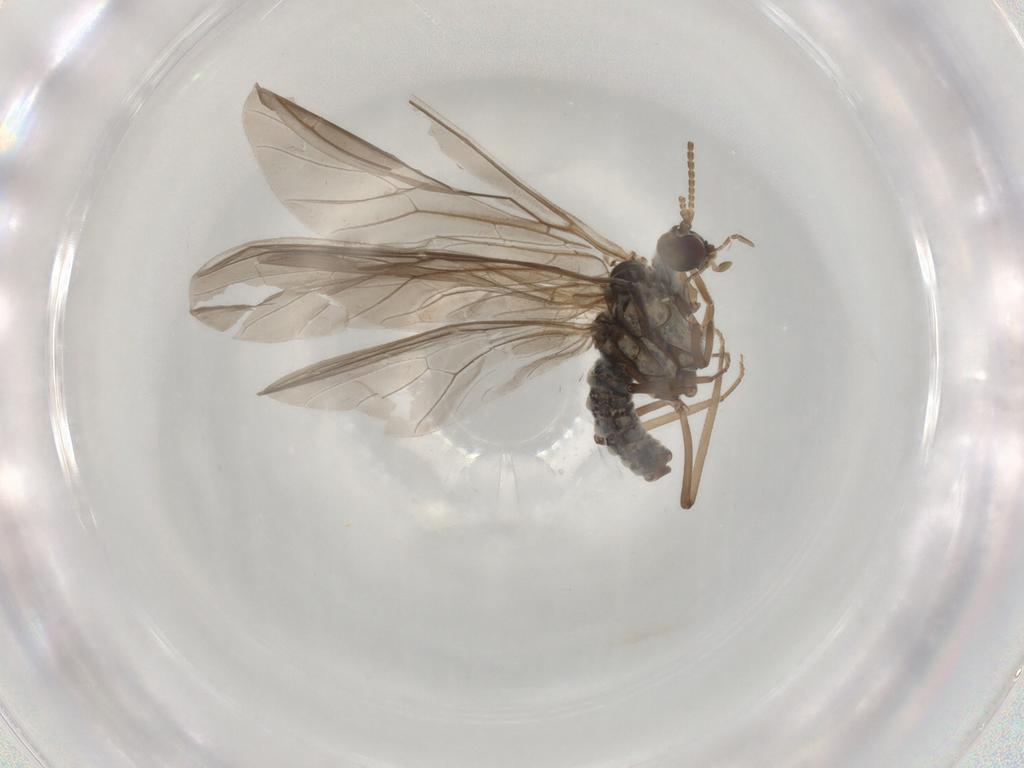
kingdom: Animalia
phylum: Arthropoda
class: Insecta
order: Neuroptera
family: Coniopterygidae
